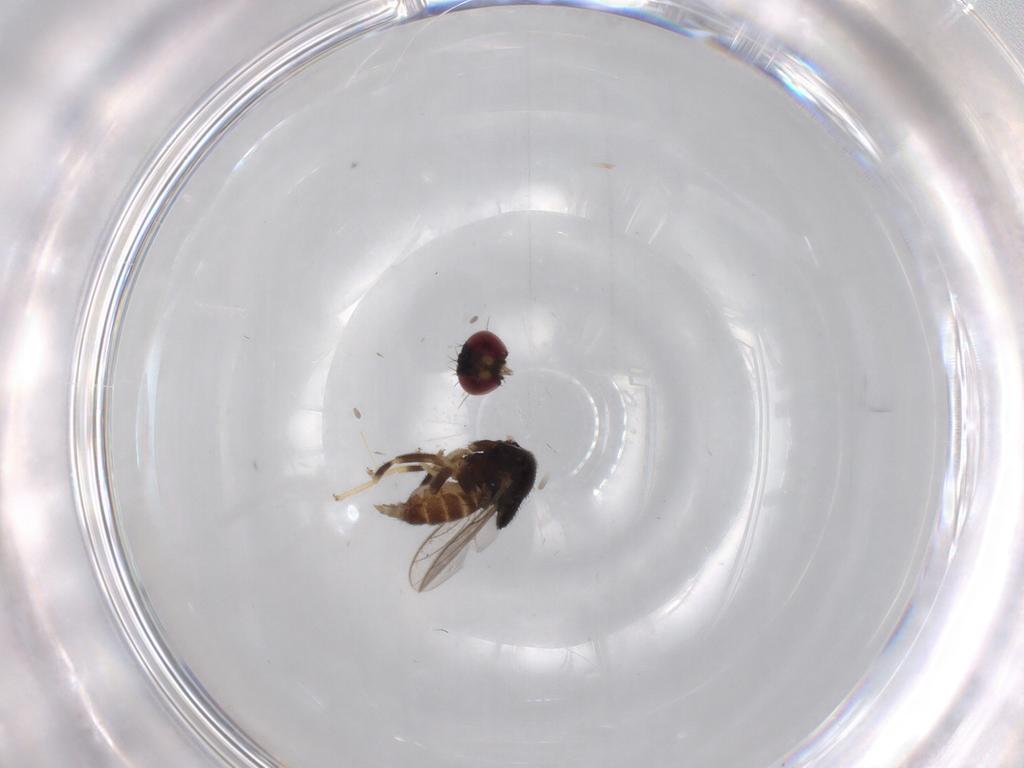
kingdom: Animalia
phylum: Arthropoda
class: Insecta
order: Diptera
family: Chloropidae
